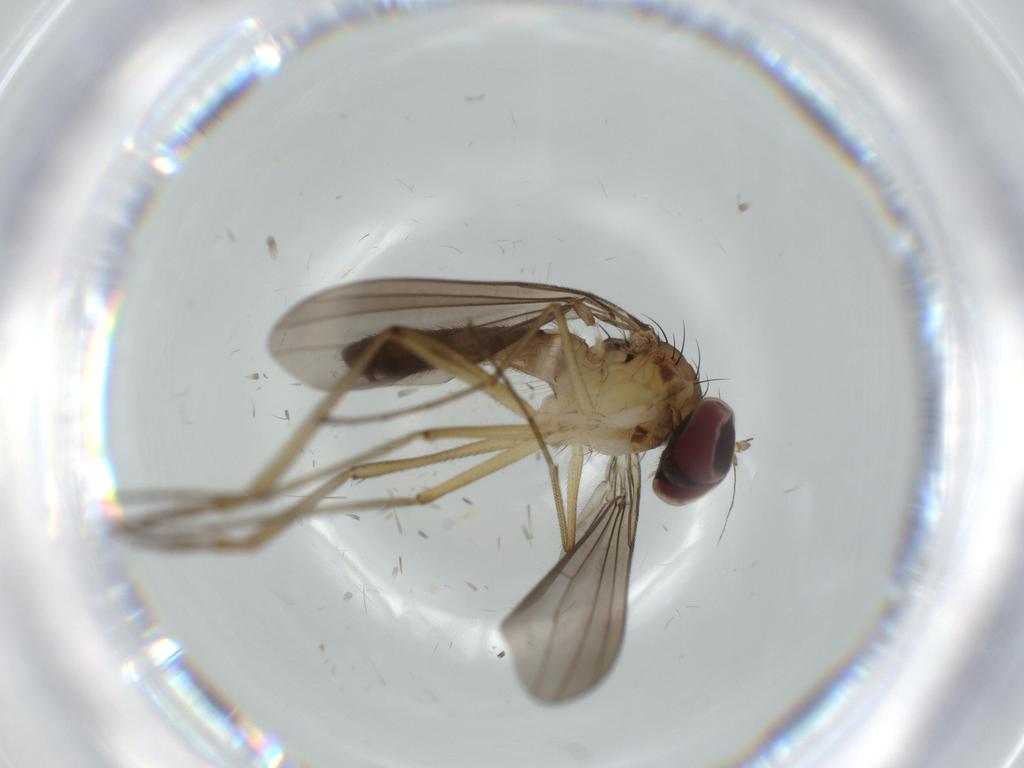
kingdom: Animalia
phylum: Arthropoda
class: Insecta
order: Diptera
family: Dolichopodidae
